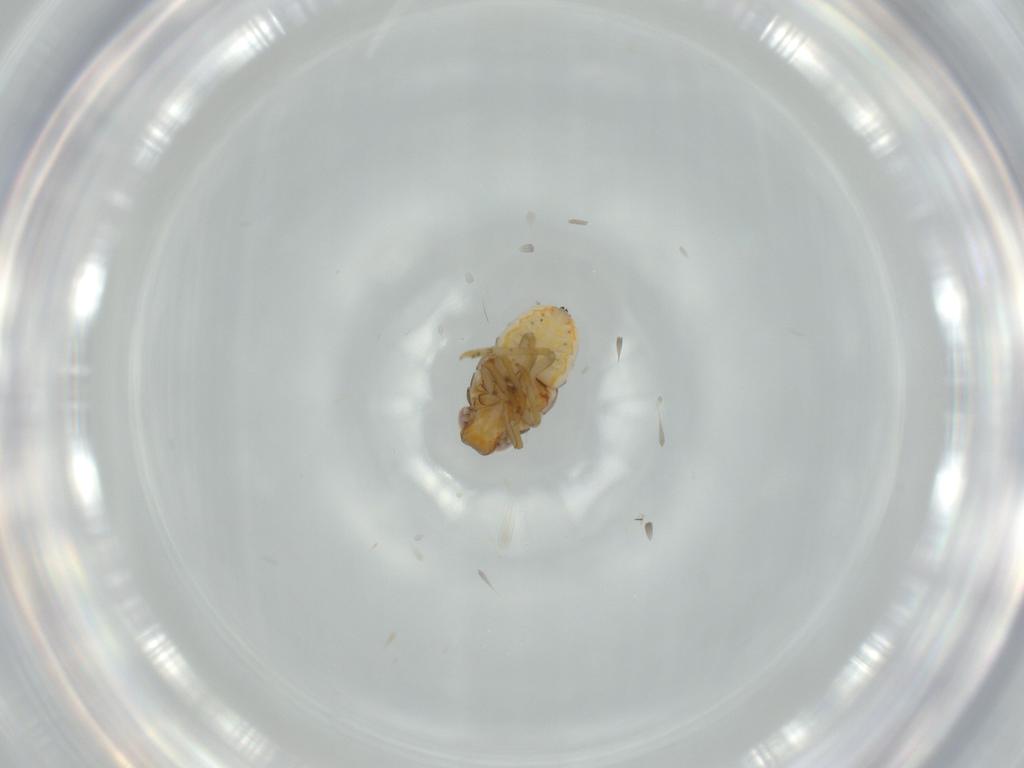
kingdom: Animalia
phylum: Arthropoda
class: Insecta
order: Hemiptera
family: Issidae
